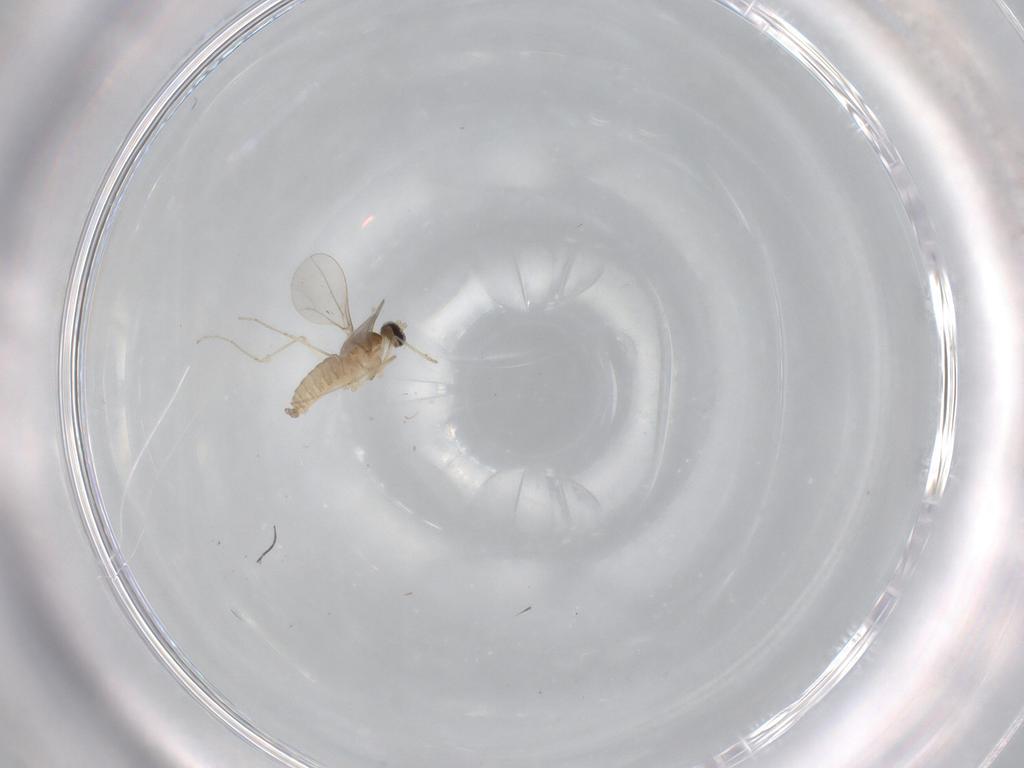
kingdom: Animalia
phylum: Arthropoda
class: Insecta
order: Diptera
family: Cecidomyiidae
